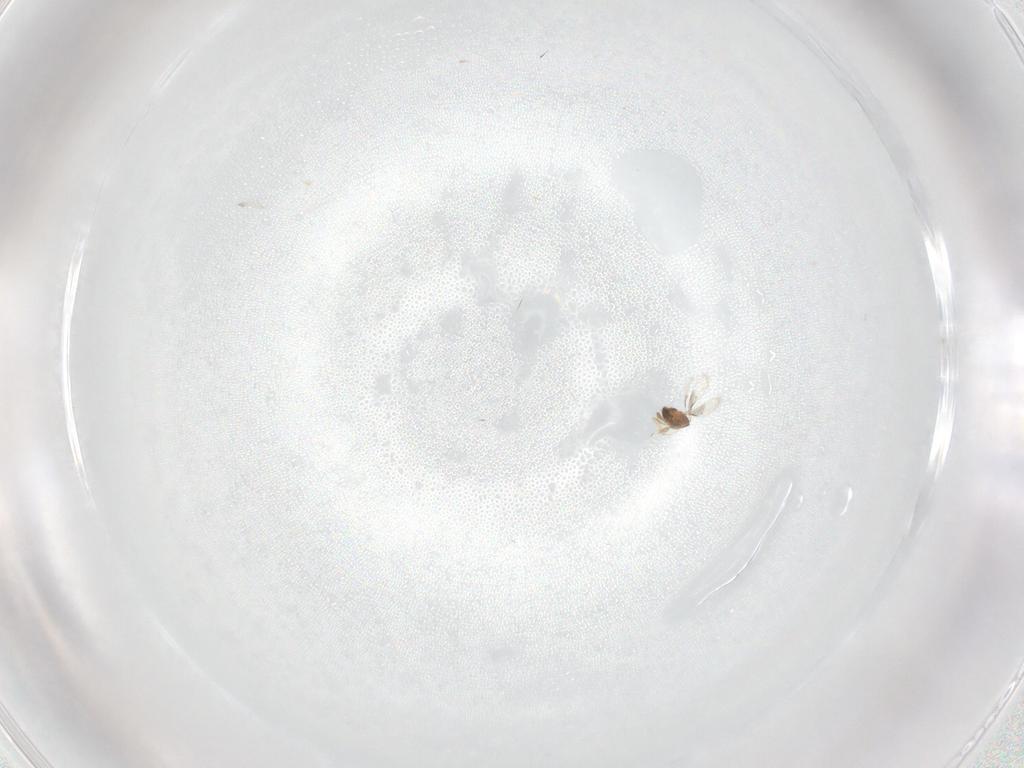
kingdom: Animalia
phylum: Arthropoda
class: Insecta
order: Hymenoptera
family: Trichogrammatidae
